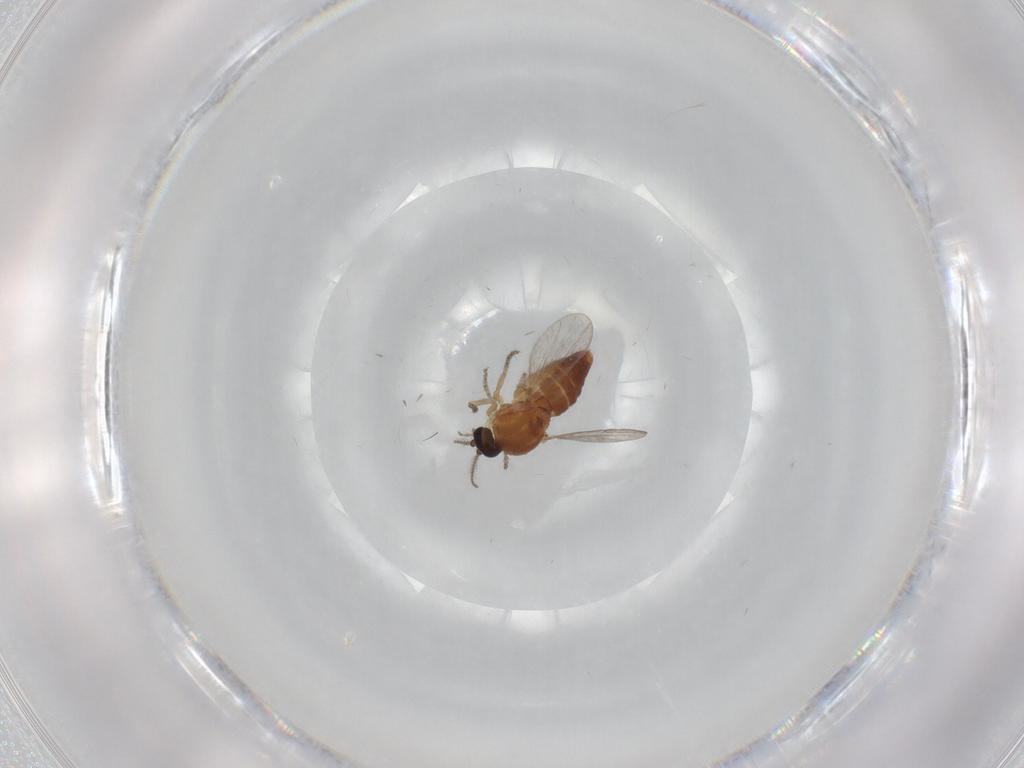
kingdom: Animalia
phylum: Arthropoda
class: Insecta
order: Diptera
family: Ceratopogonidae
